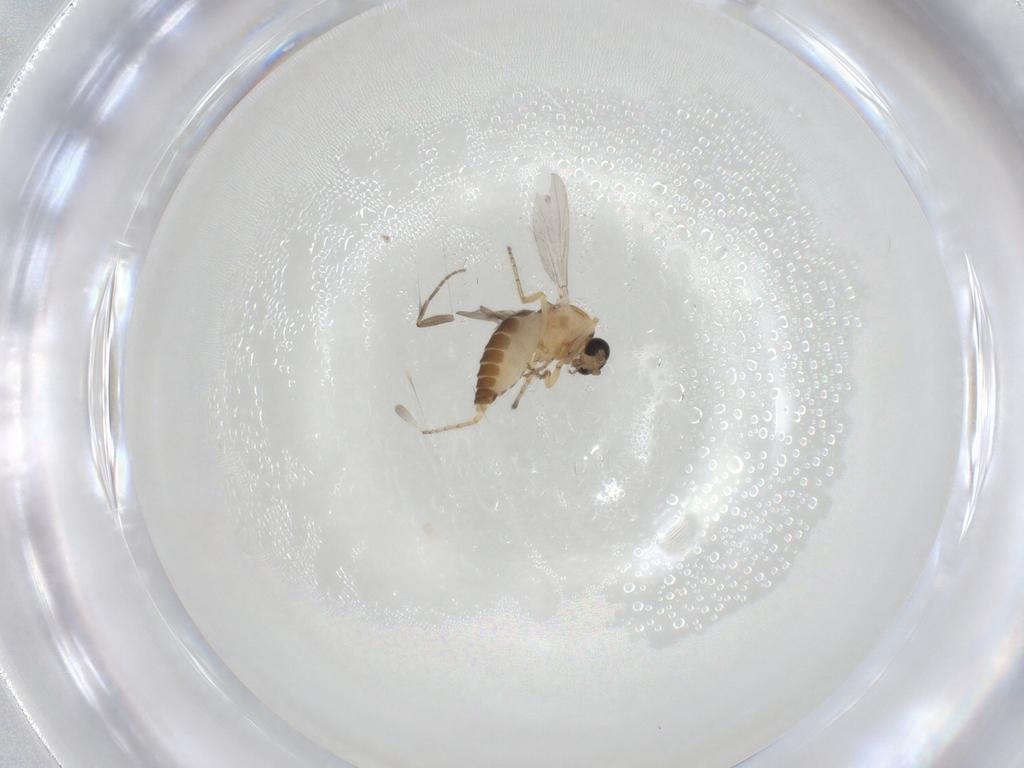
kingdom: Animalia
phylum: Arthropoda
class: Insecta
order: Diptera
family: Ceratopogonidae
